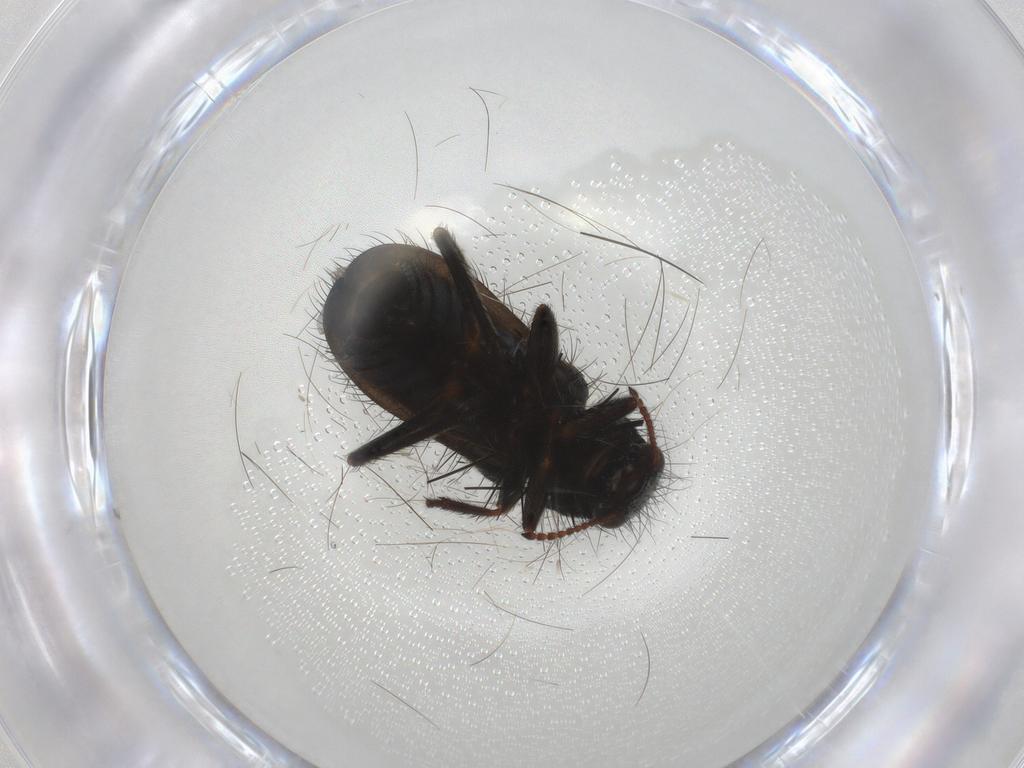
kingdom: Animalia
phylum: Arthropoda
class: Insecta
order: Coleoptera
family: Melyridae
